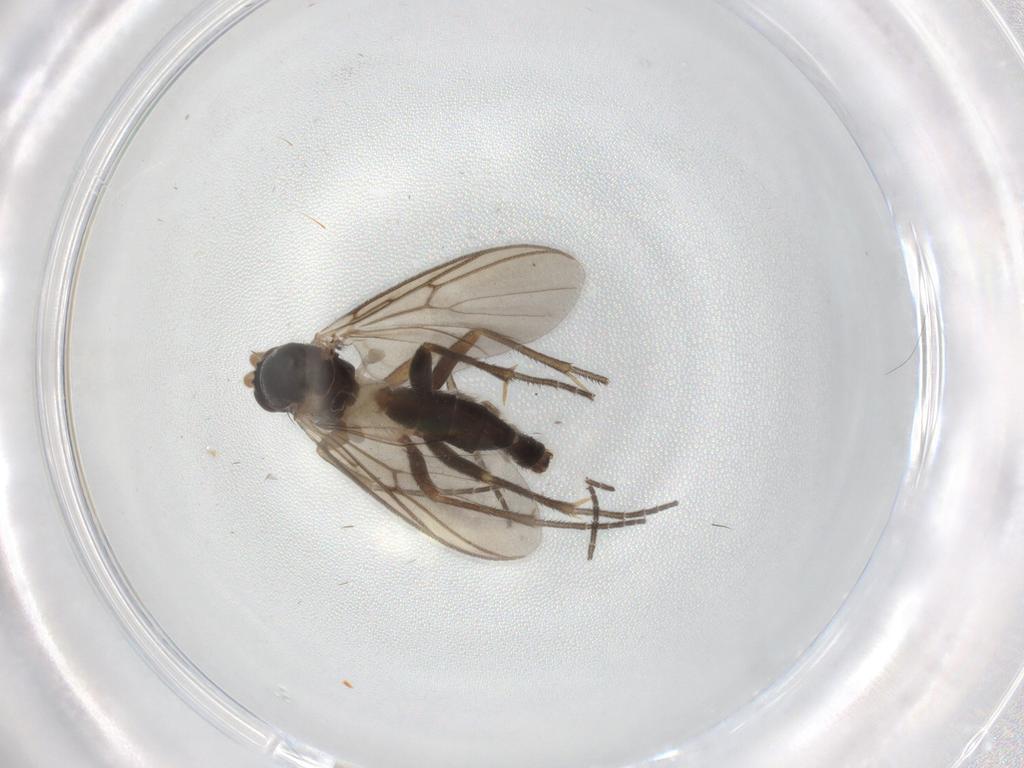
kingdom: Animalia
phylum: Arthropoda
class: Insecta
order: Diptera
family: Mycetophilidae
